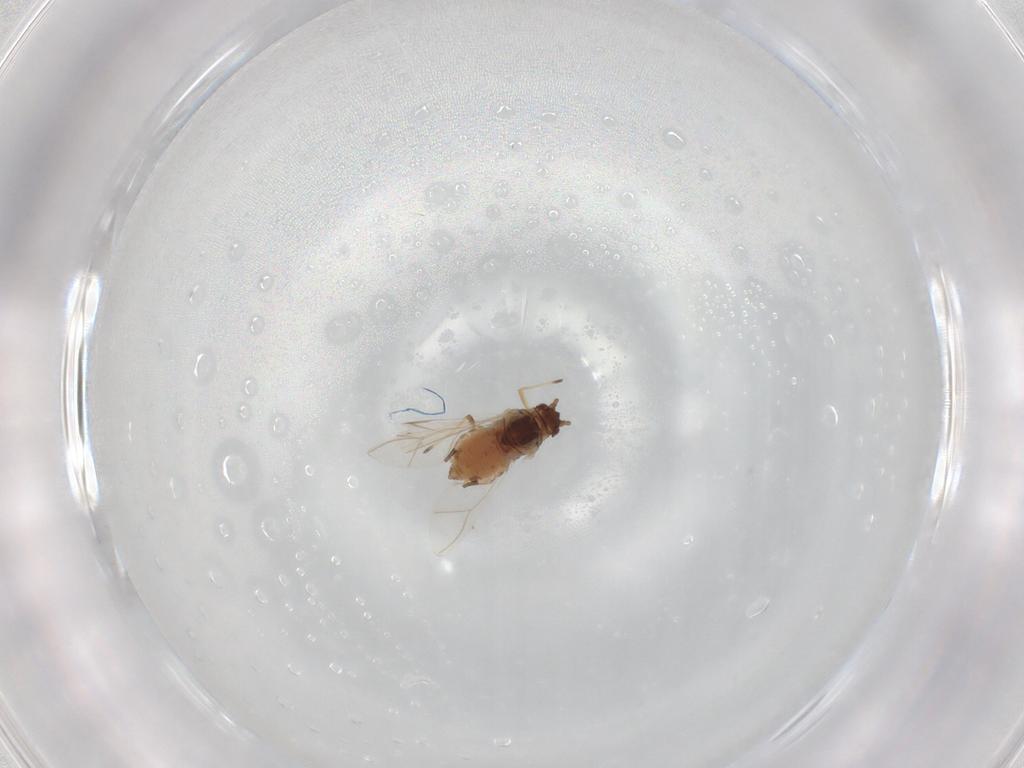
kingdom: Animalia
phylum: Arthropoda
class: Insecta
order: Hemiptera
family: Aphididae
